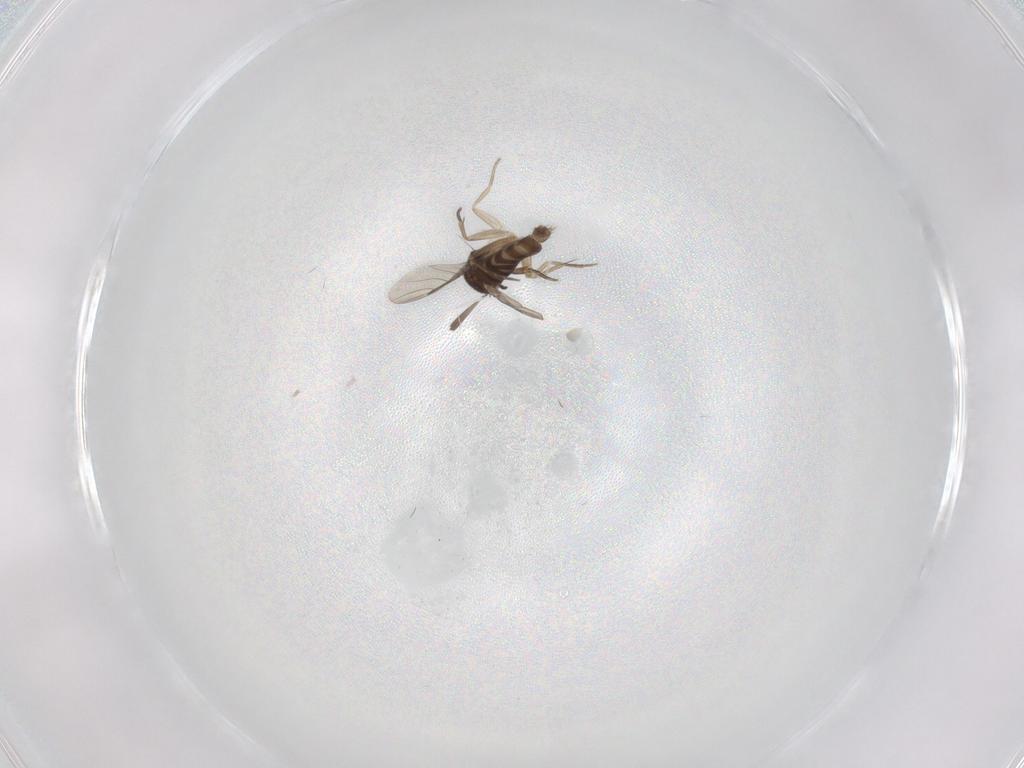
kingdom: Animalia
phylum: Arthropoda
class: Insecta
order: Diptera
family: Phoridae
